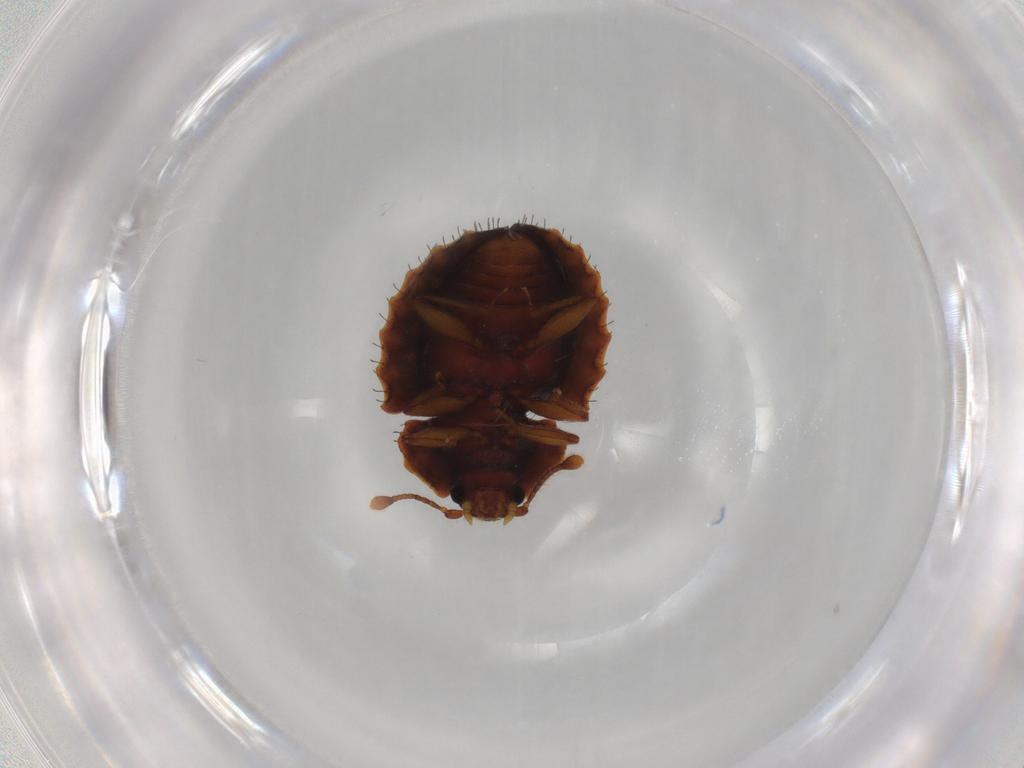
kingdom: Animalia
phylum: Arthropoda
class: Insecta
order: Coleoptera
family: Discolomatidae
